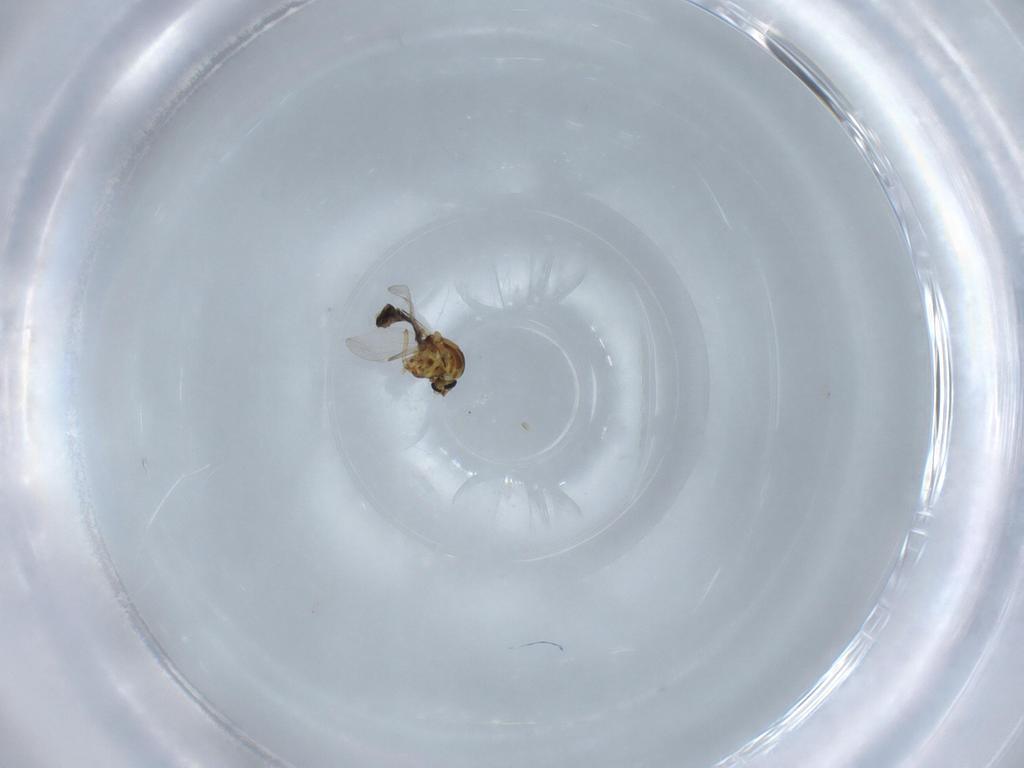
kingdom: Animalia
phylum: Arthropoda
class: Insecta
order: Diptera
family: Ceratopogonidae
